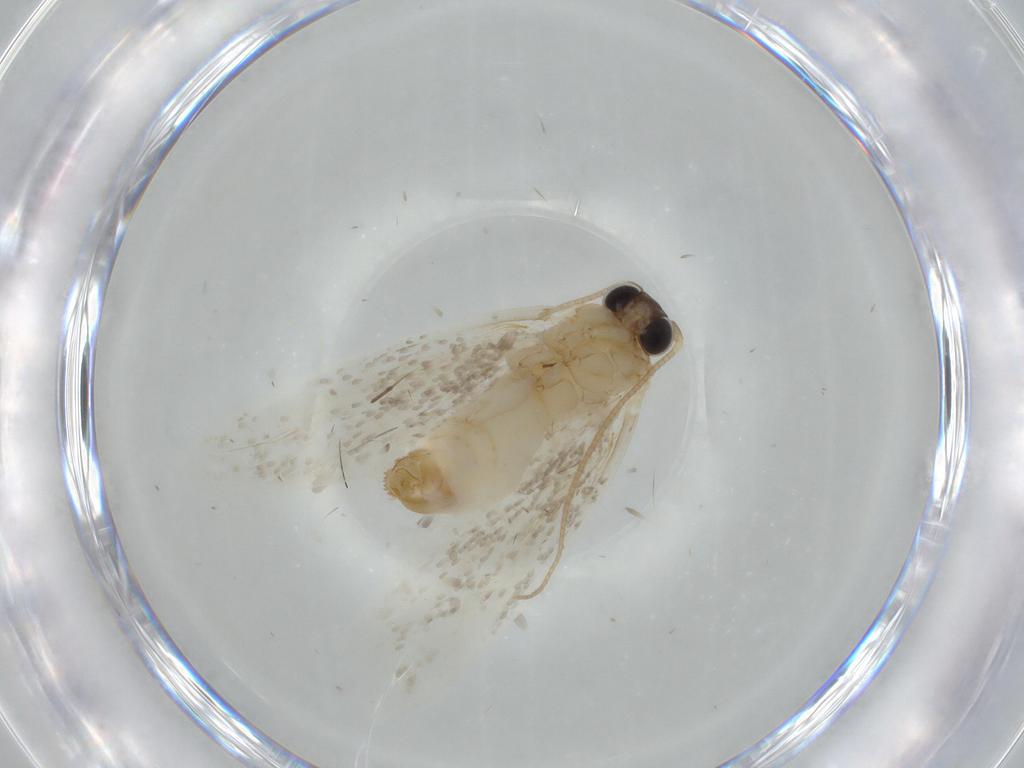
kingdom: Animalia
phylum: Arthropoda
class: Insecta
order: Lepidoptera
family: Cosmopterigidae
